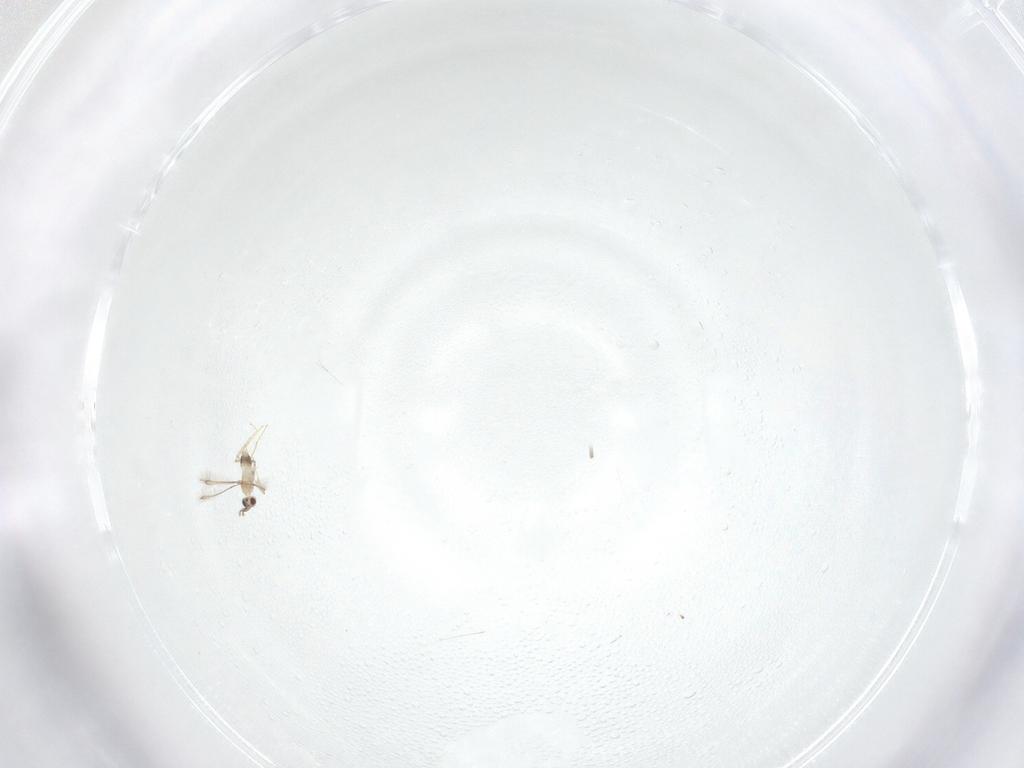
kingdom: Animalia
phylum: Arthropoda
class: Insecta
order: Hymenoptera
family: Mymaridae
